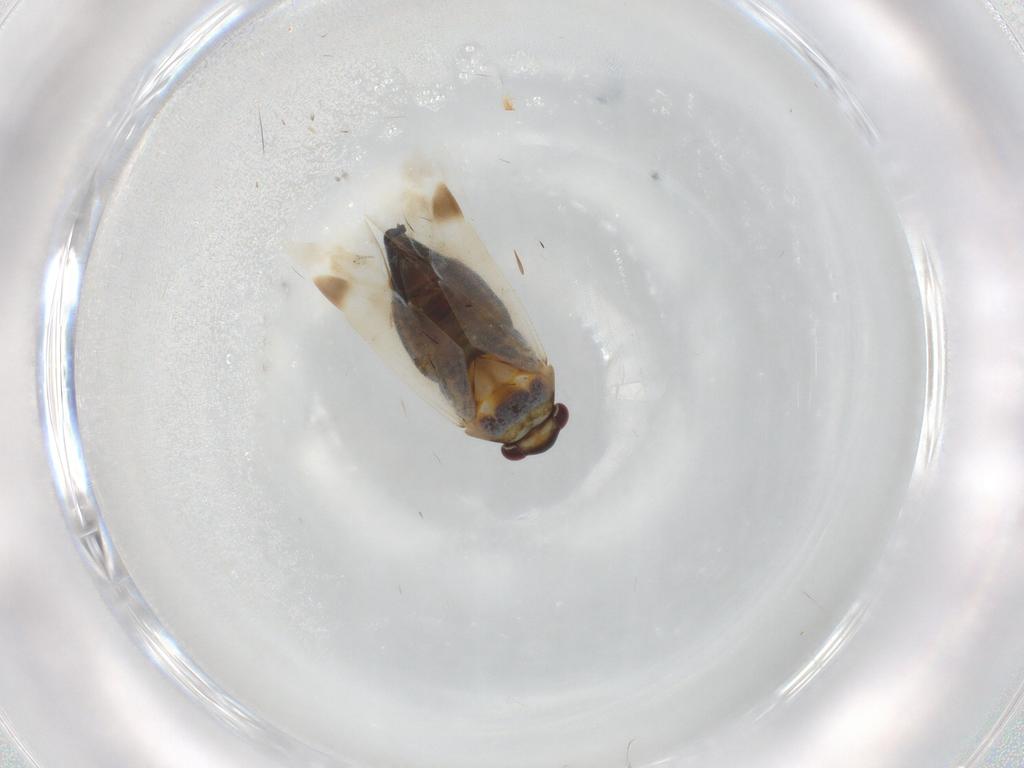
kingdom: Animalia
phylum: Arthropoda
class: Insecta
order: Hemiptera
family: Miridae
